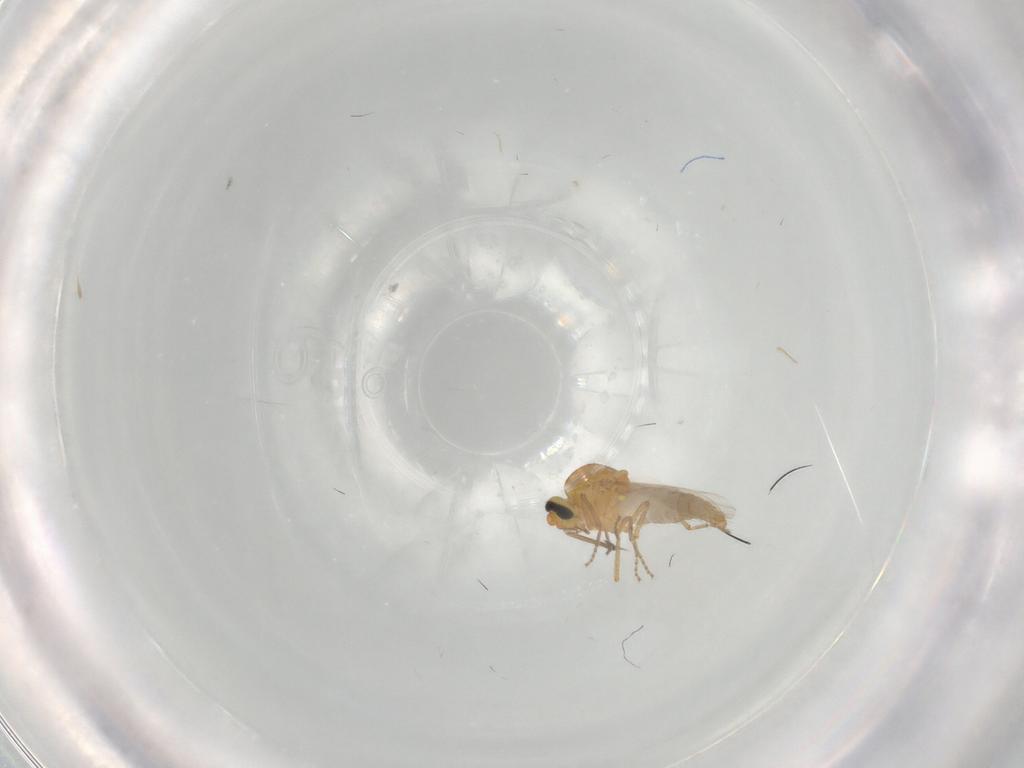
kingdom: Animalia
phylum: Arthropoda
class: Insecta
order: Diptera
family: Ceratopogonidae
